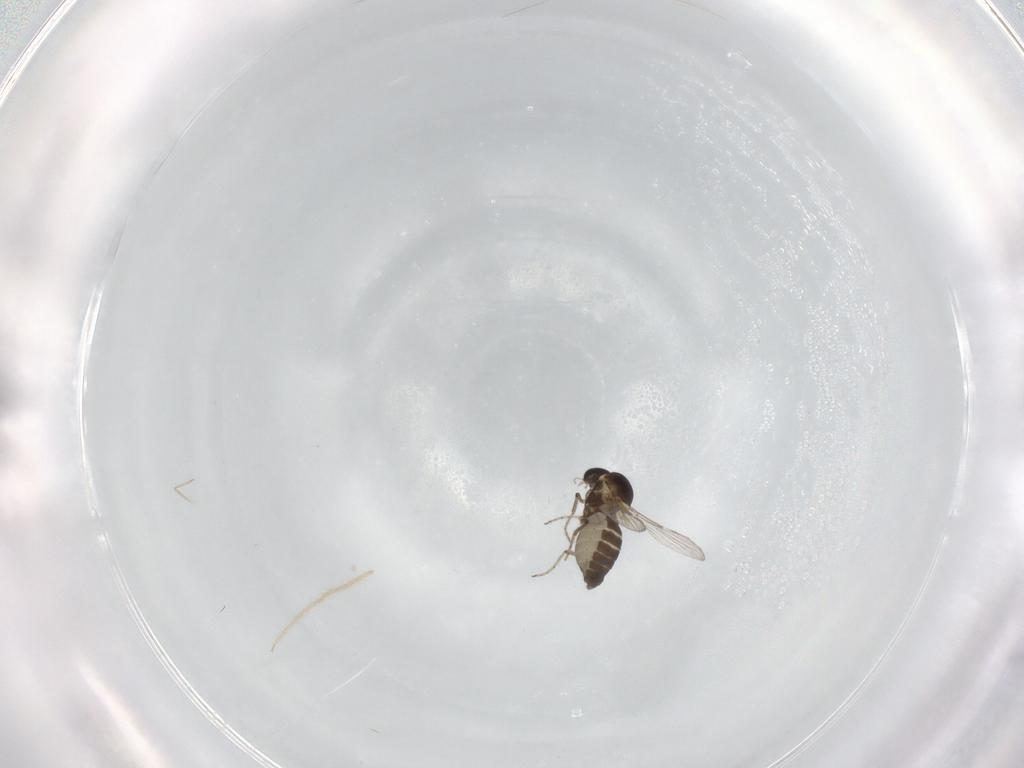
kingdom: Animalia
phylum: Arthropoda
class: Insecta
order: Diptera
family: Ceratopogonidae
